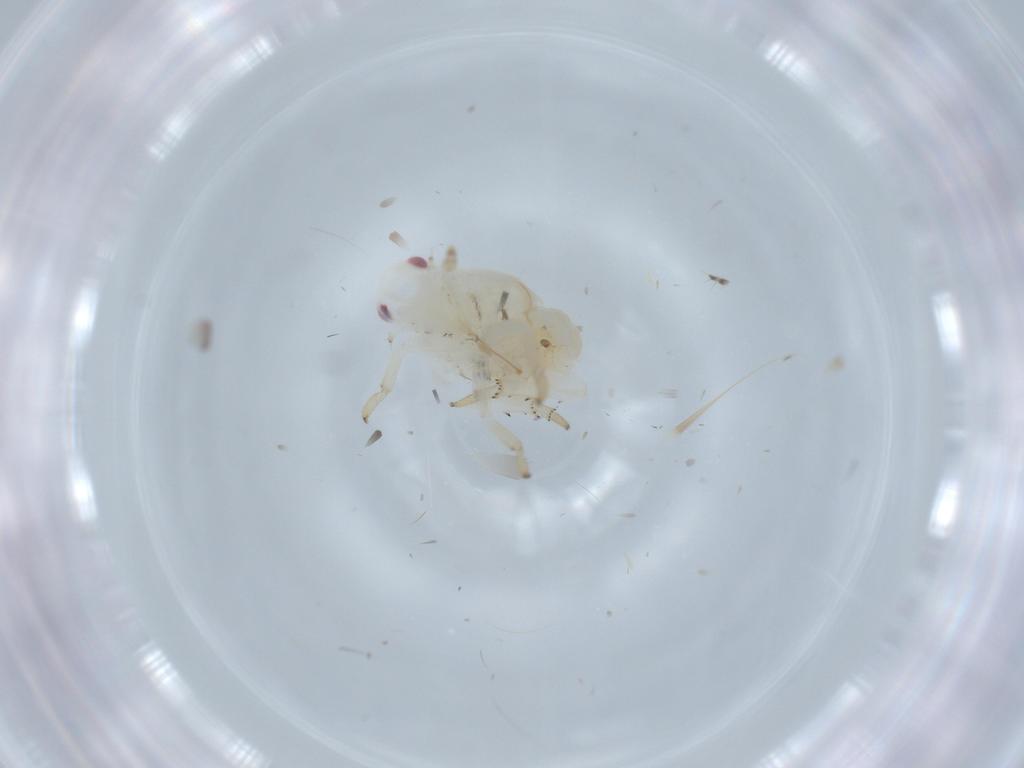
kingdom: Animalia
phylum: Arthropoda
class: Insecta
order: Hemiptera
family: Flatidae
